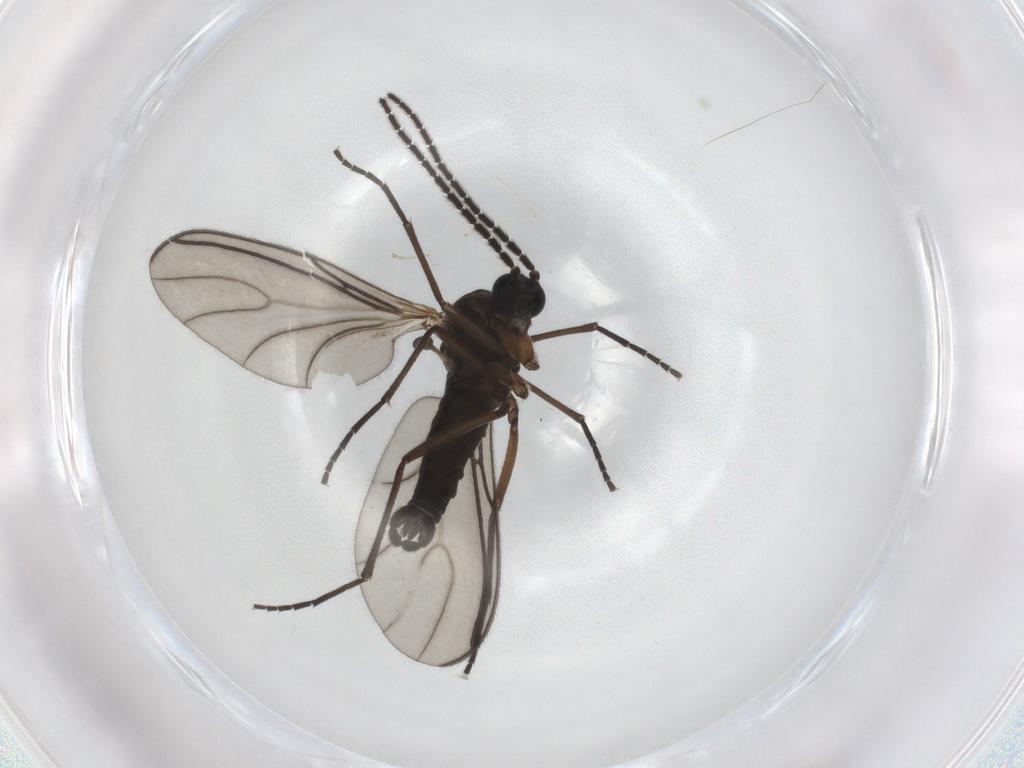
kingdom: Animalia
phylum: Arthropoda
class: Insecta
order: Diptera
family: Sciaridae
